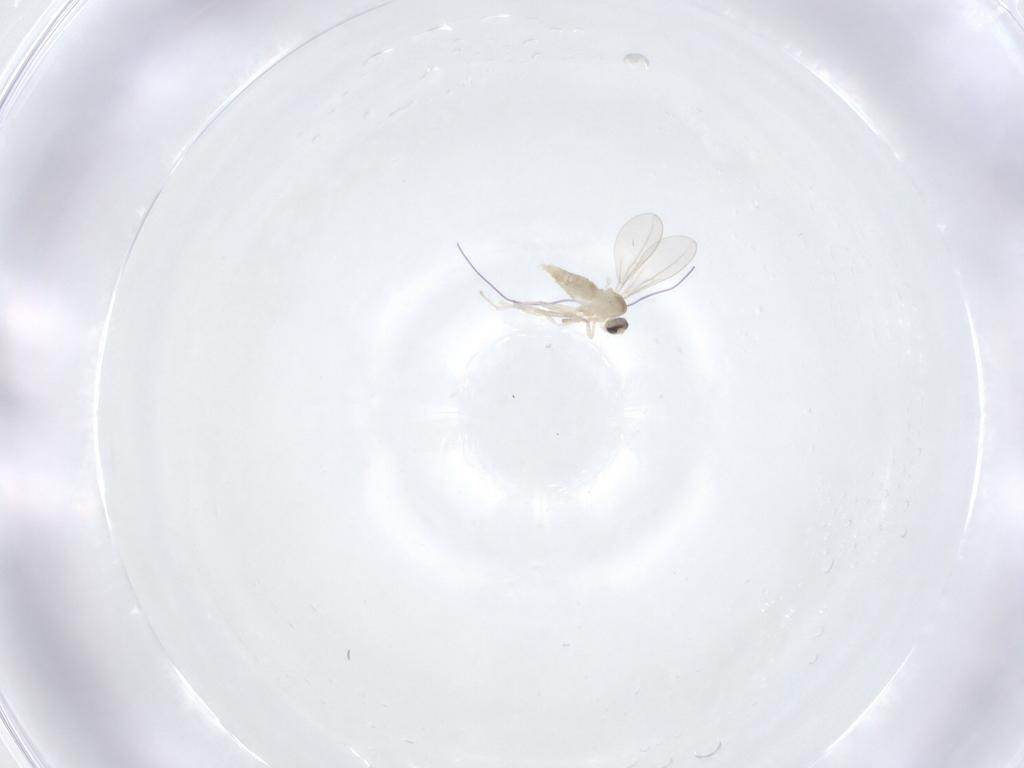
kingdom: Animalia
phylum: Arthropoda
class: Insecta
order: Diptera
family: Cecidomyiidae
